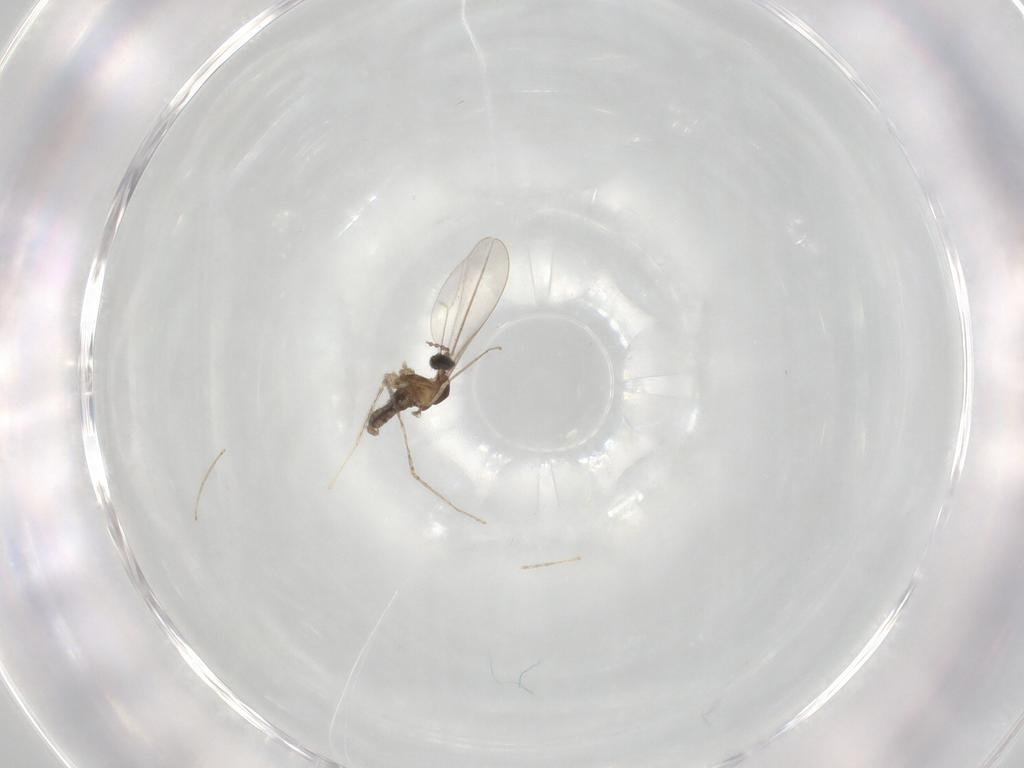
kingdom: Animalia
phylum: Arthropoda
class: Insecta
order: Diptera
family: Cecidomyiidae
